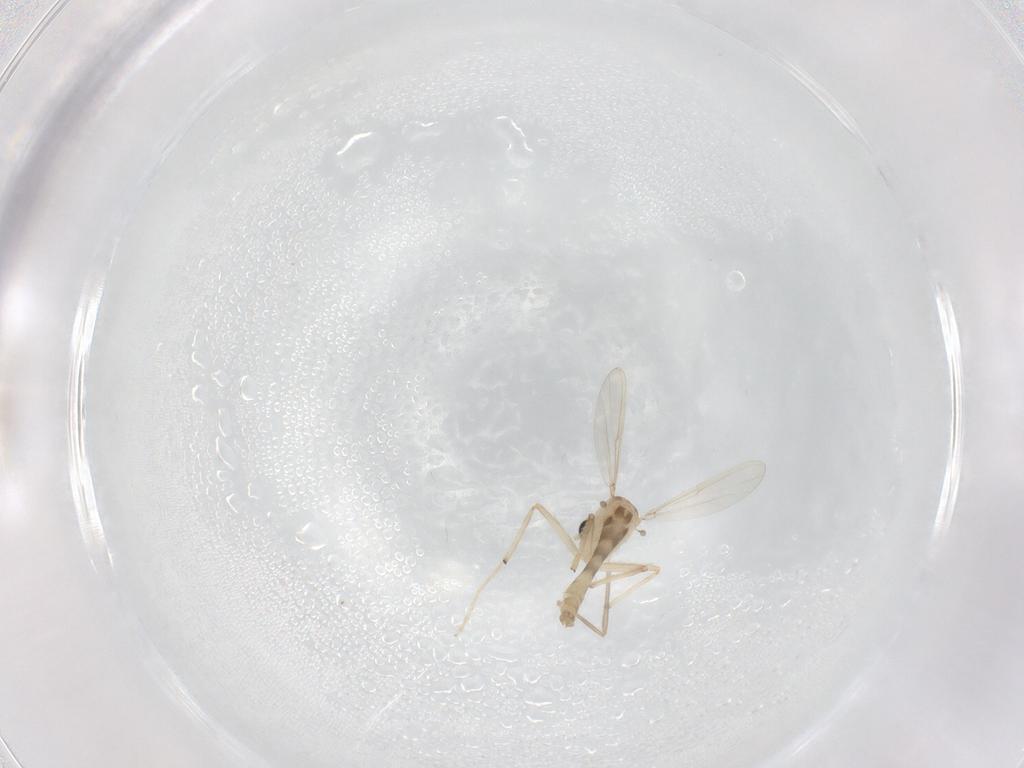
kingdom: Animalia
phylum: Arthropoda
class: Insecta
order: Diptera
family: Chironomidae
